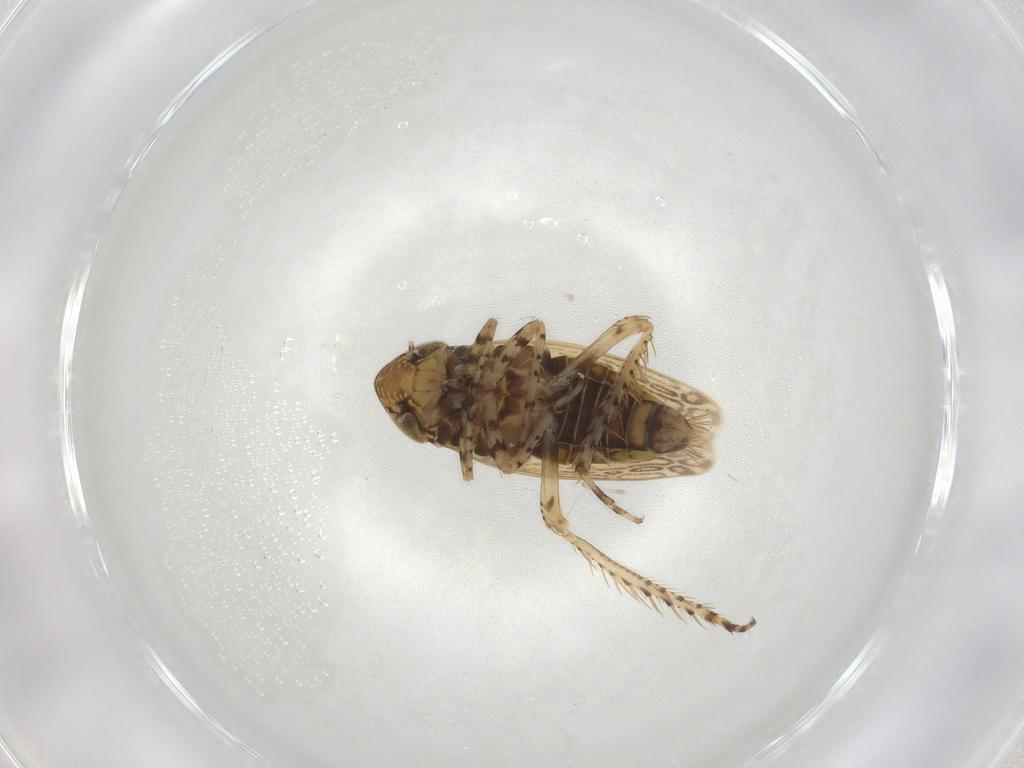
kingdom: Animalia
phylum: Arthropoda
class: Insecta
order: Hemiptera
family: Cicadellidae
